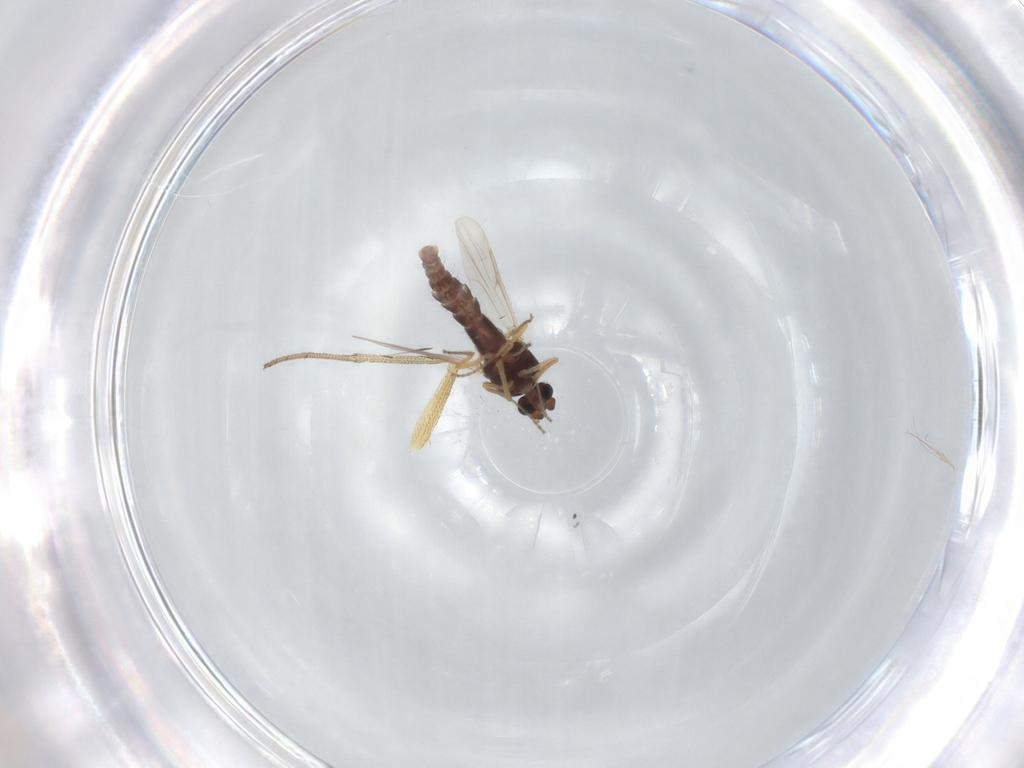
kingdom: Animalia
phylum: Arthropoda
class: Insecta
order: Diptera
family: Ceratopogonidae
